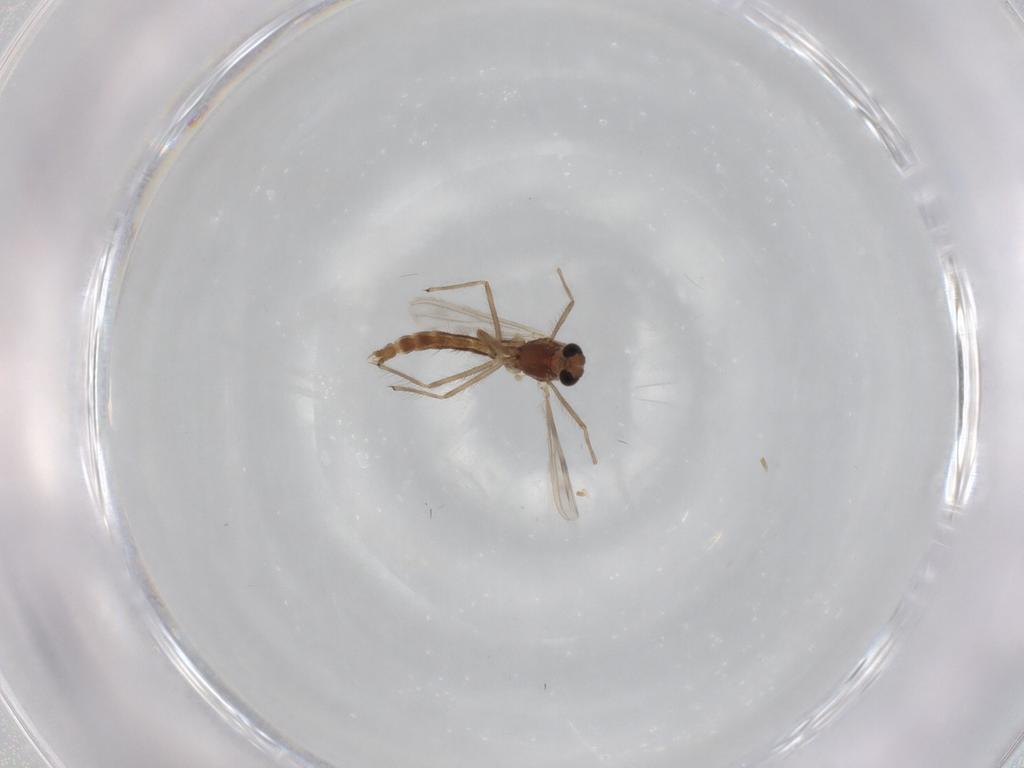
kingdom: Animalia
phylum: Arthropoda
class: Insecta
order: Diptera
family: Chironomidae
